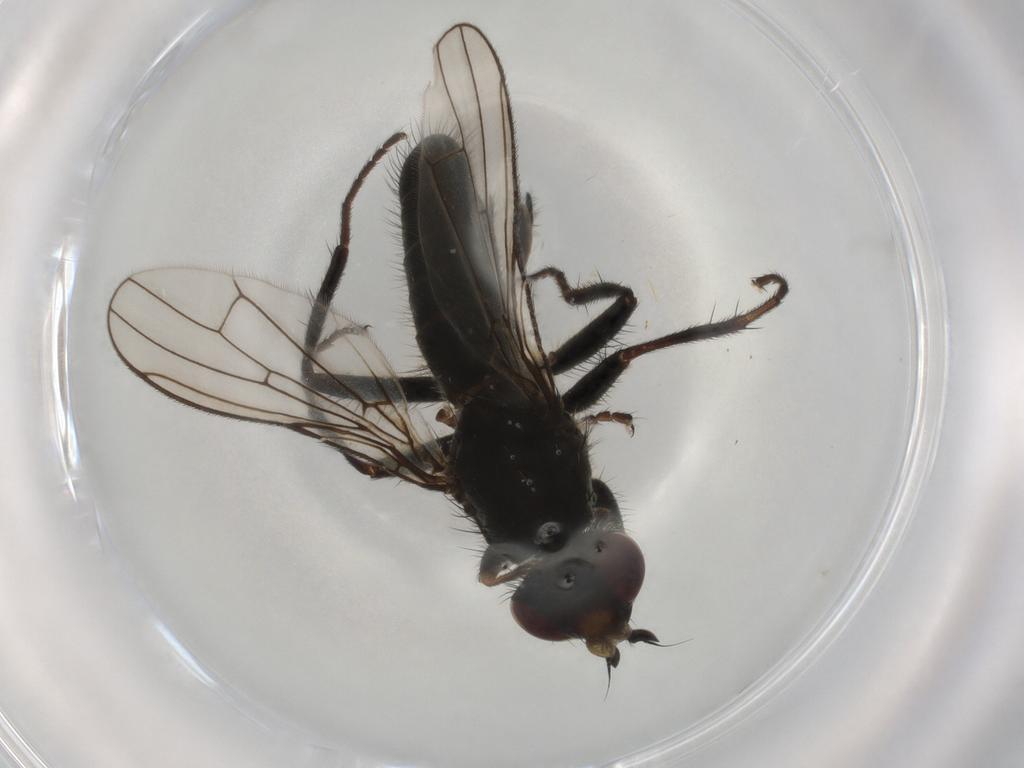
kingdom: Animalia
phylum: Arthropoda
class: Insecta
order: Diptera
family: Scathophagidae
